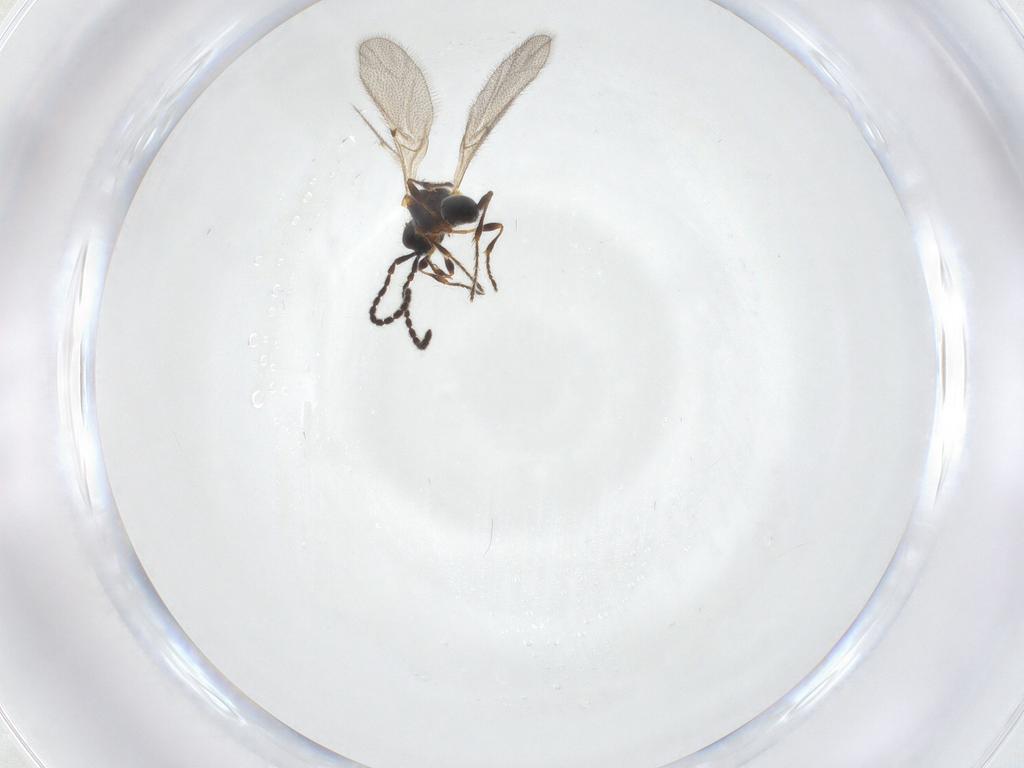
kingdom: Animalia
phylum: Arthropoda
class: Insecta
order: Hymenoptera
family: Diapriidae
